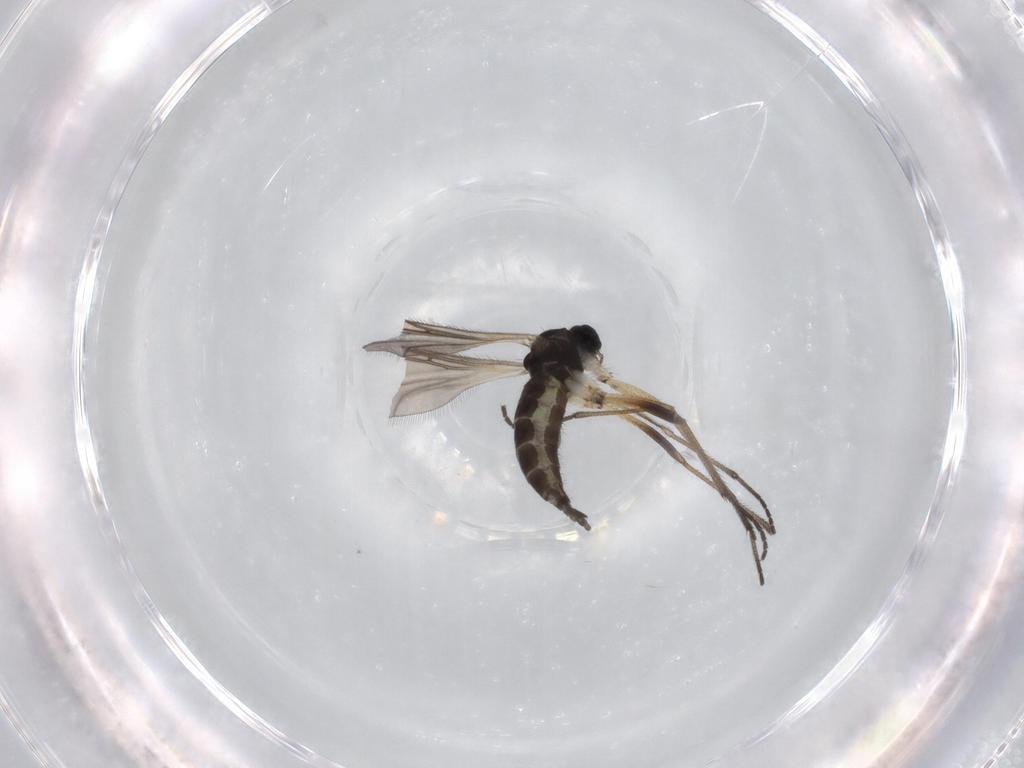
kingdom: Animalia
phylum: Arthropoda
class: Insecta
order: Diptera
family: Sciaridae
